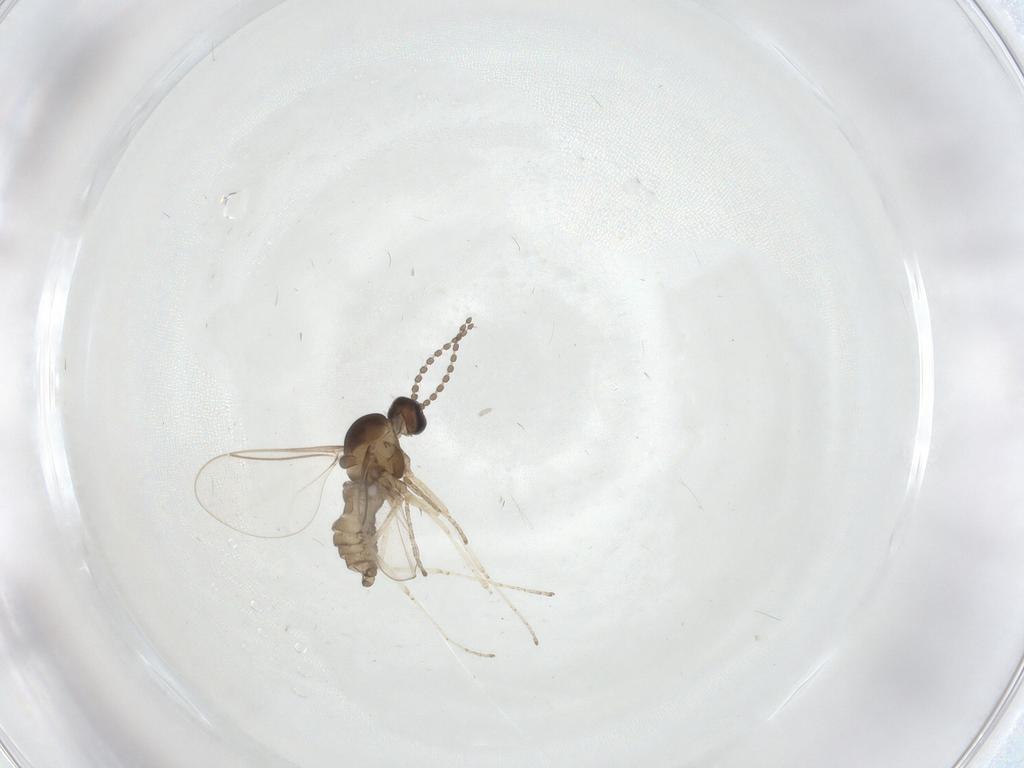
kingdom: Animalia
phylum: Arthropoda
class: Insecta
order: Diptera
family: Cecidomyiidae
